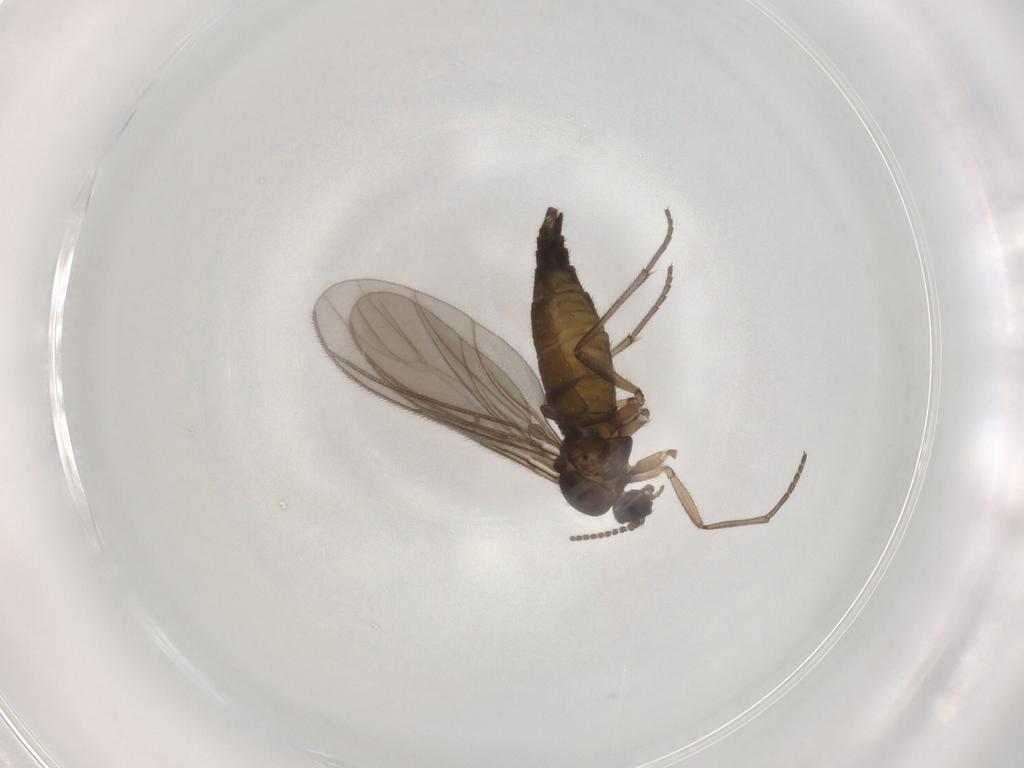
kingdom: Animalia
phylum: Arthropoda
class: Insecta
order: Diptera
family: Sciaridae
